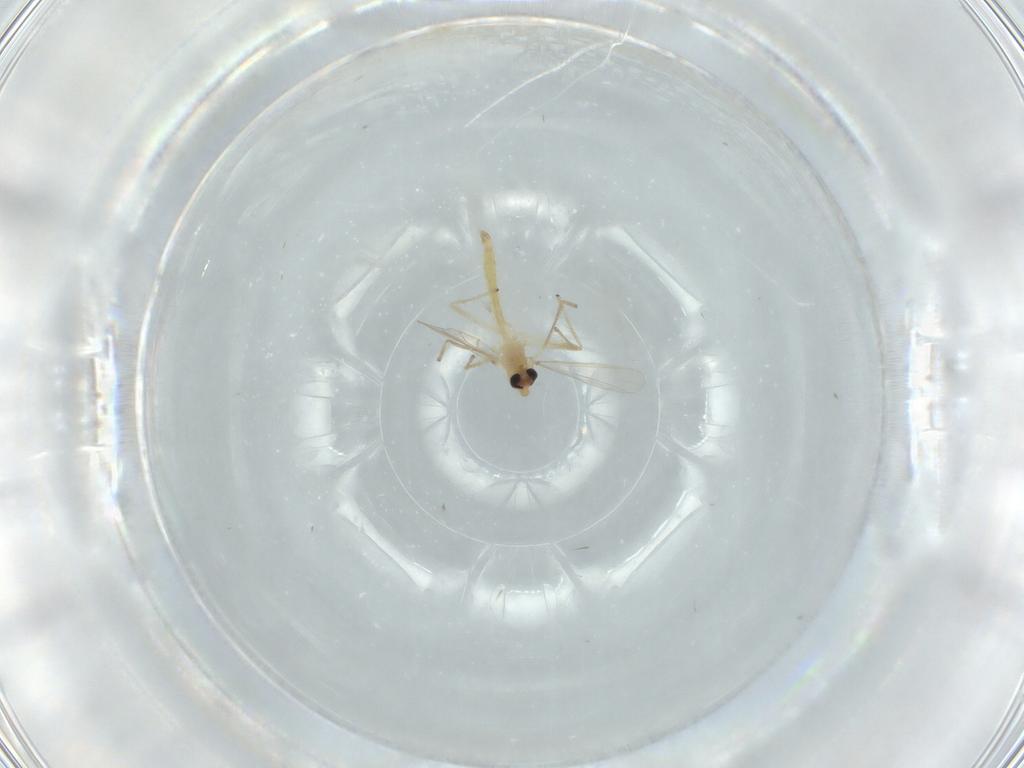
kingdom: Animalia
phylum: Arthropoda
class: Insecta
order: Diptera
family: Chironomidae
